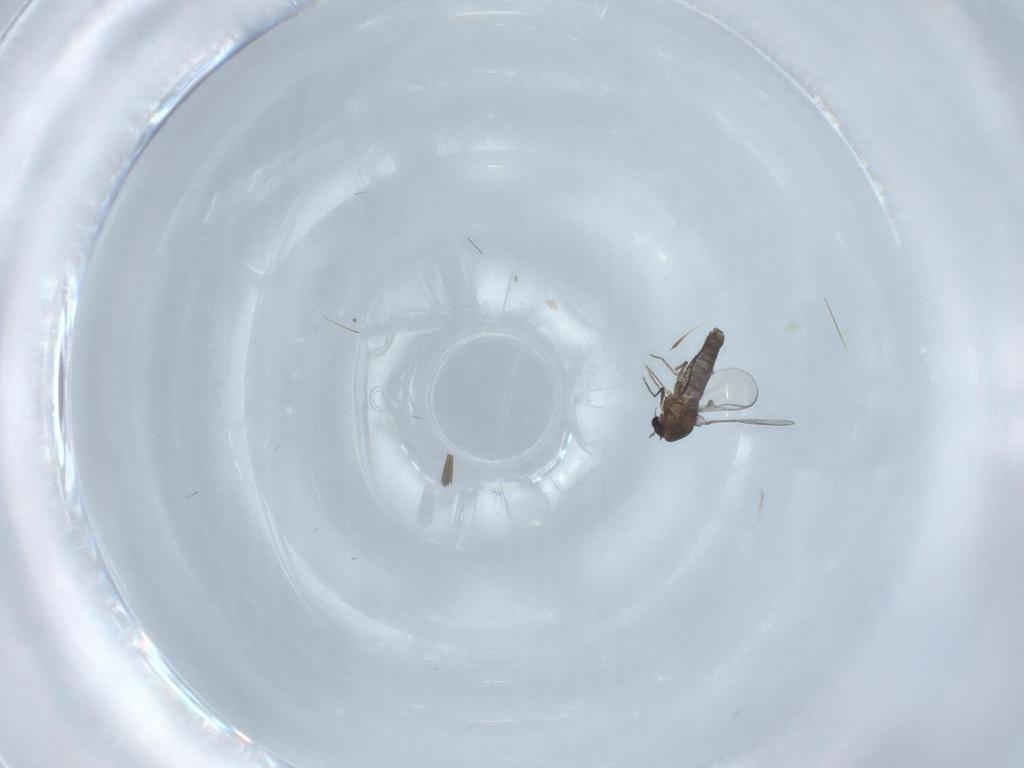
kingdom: Animalia
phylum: Arthropoda
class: Insecta
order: Diptera
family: Chironomidae
